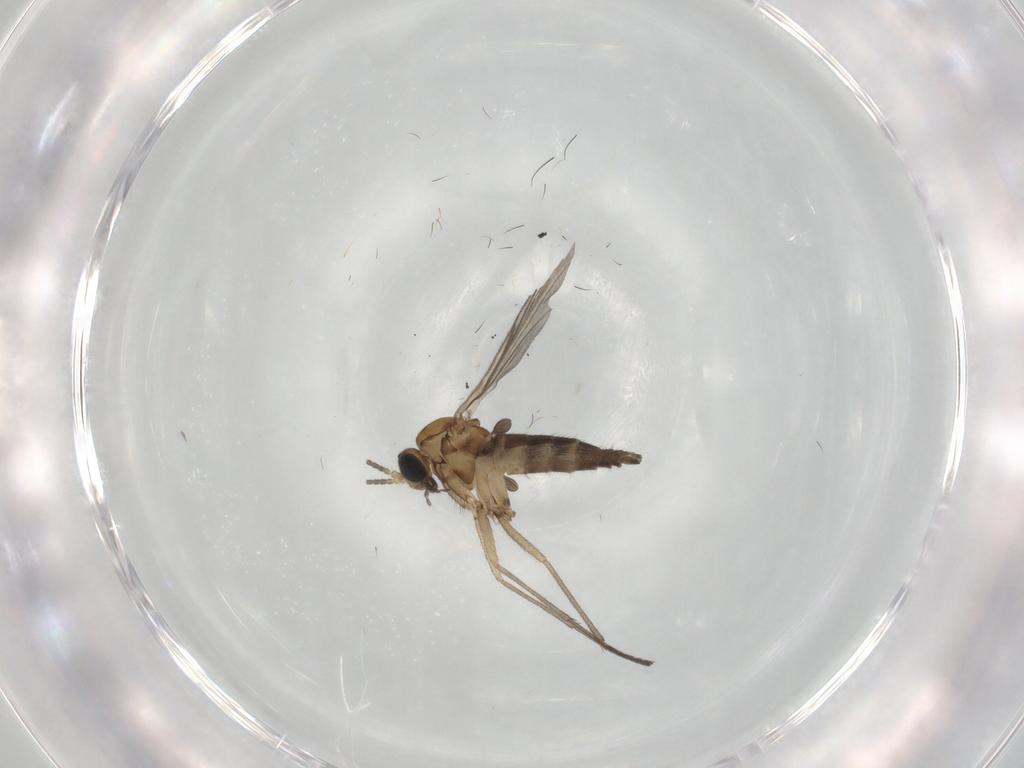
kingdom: Animalia
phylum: Arthropoda
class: Insecta
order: Diptera
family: Sciaridae
